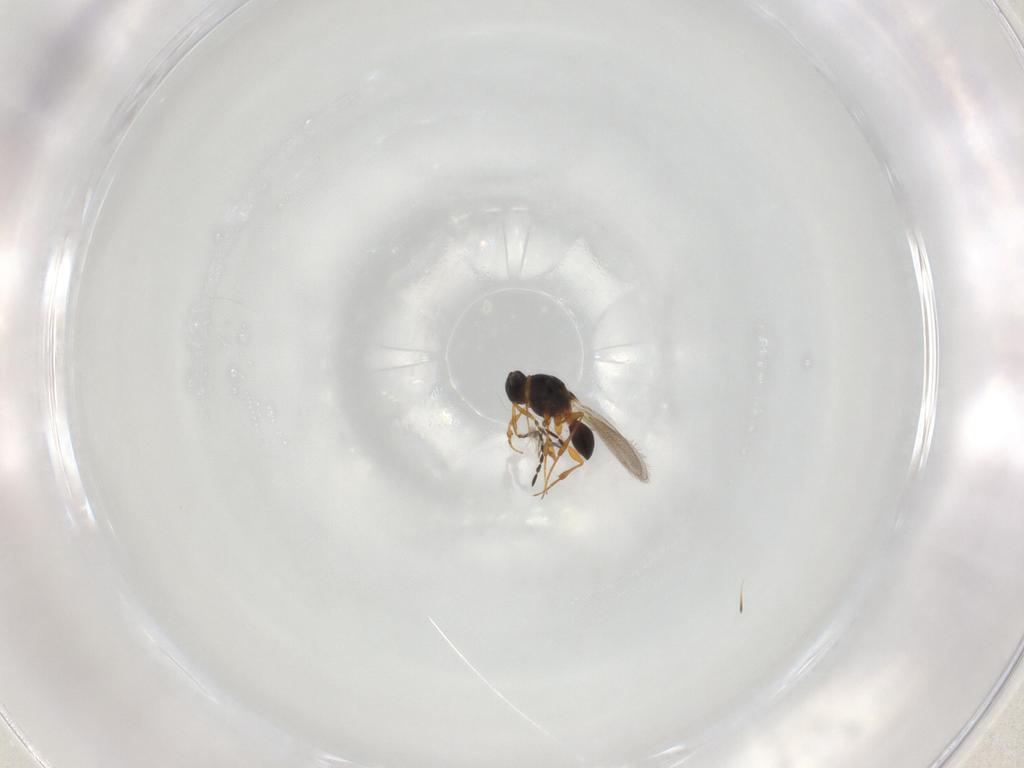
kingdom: Animalia
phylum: Arthropoda
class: Insecta
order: Hymenoptera
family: Platygastridae
